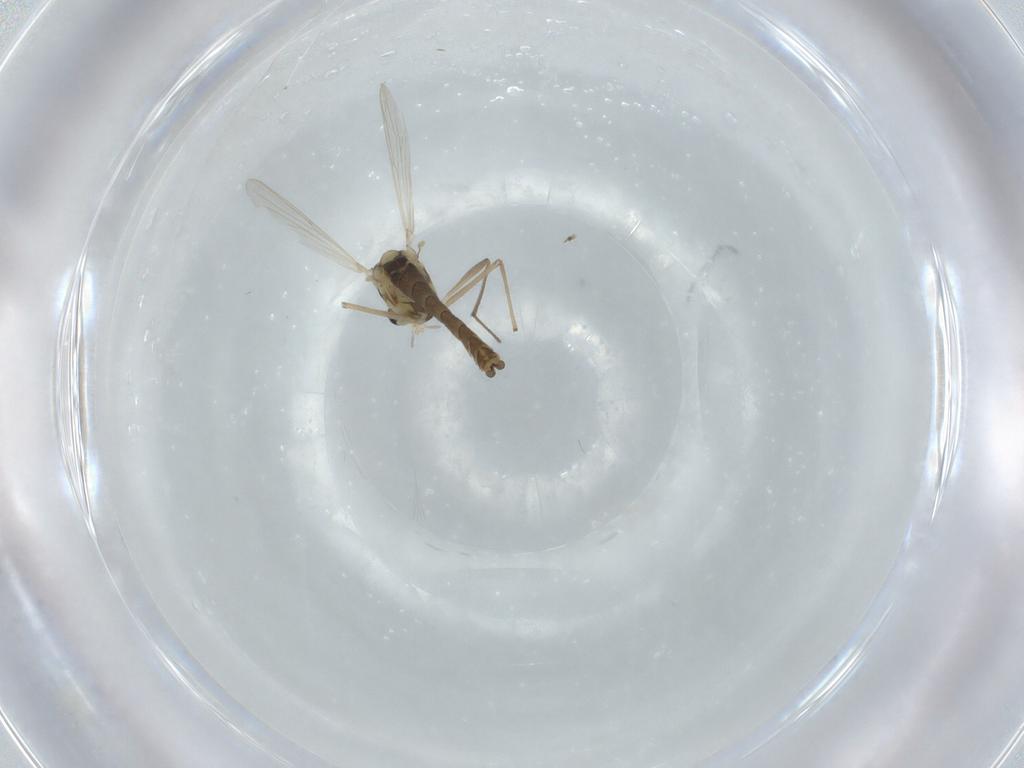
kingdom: Animalia
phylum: Arthropoda
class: Insecta
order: Diptera
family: Chironomidae
